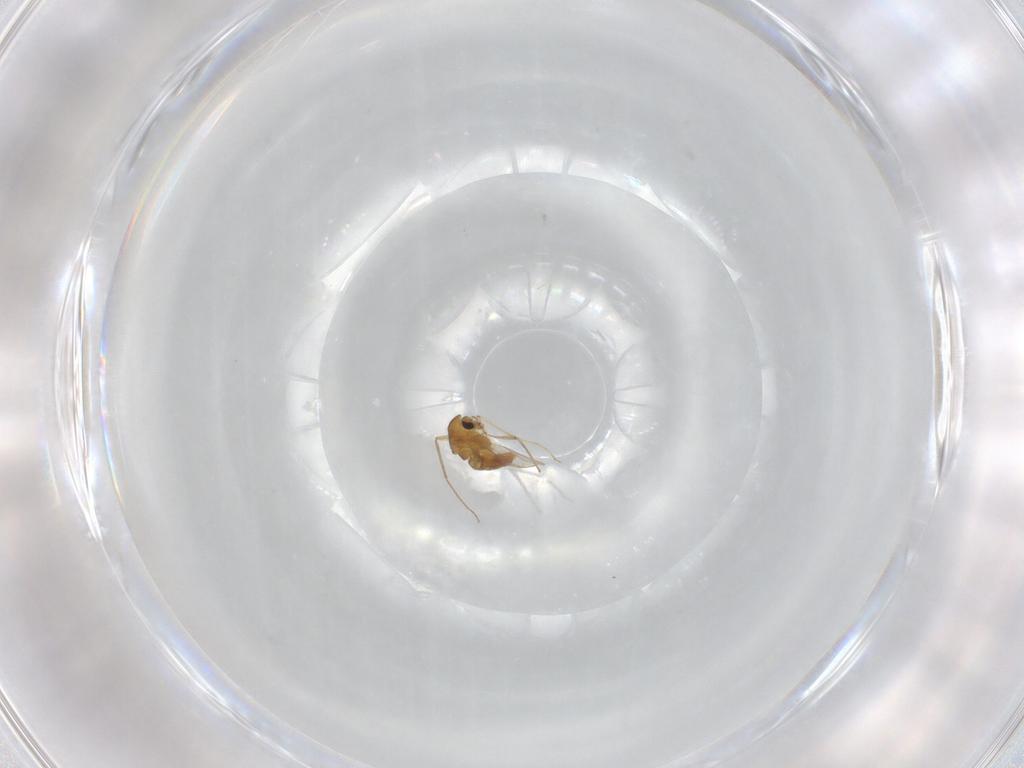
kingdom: Animalia
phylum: Arthropoda
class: Insecta
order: Diptera
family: Chironomidae
